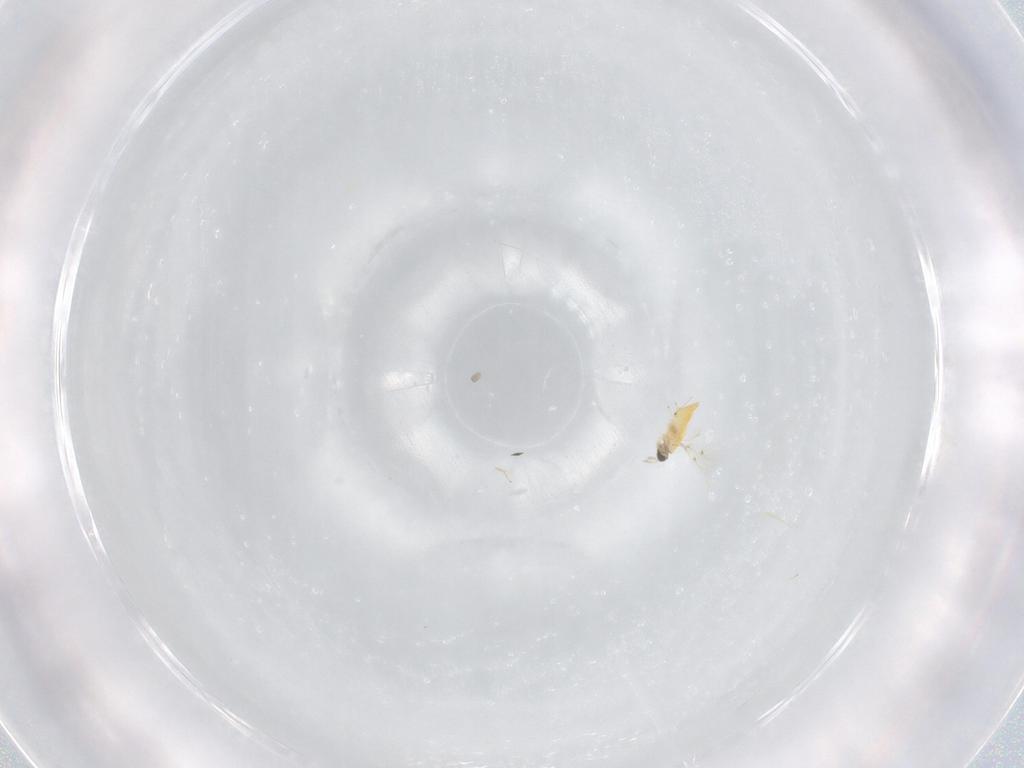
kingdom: Animalia
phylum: Arthropoda
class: Insecta
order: Hymenoptera
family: Trichogrammatidae
